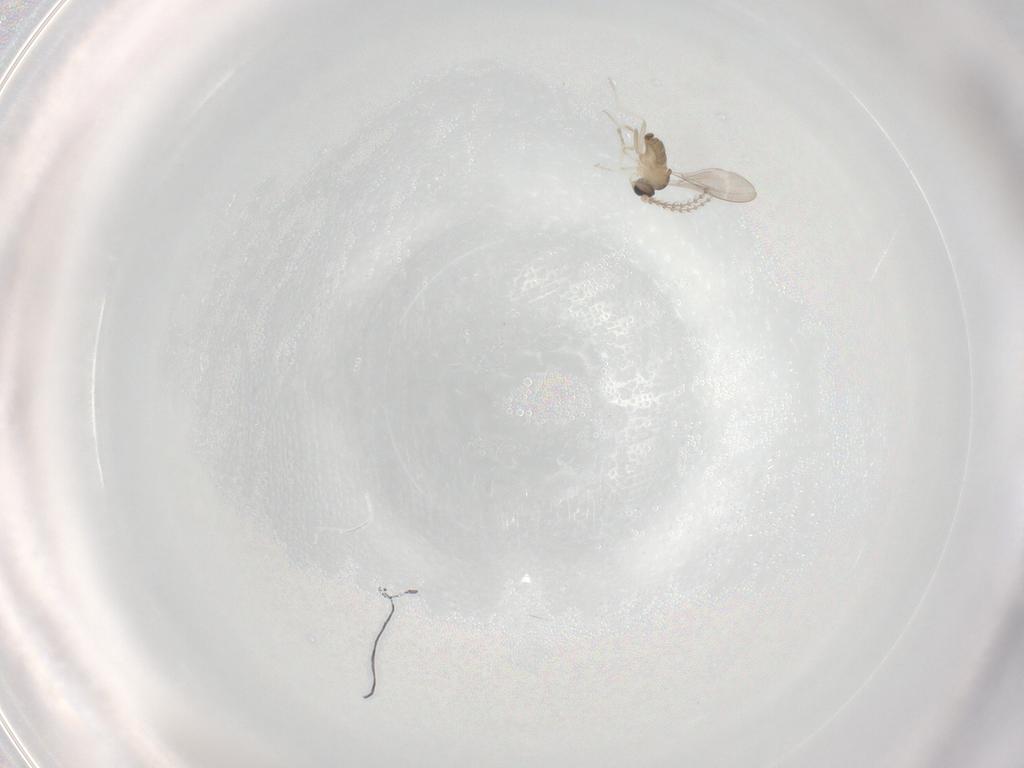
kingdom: Animalia
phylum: Arthropoda
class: Insecta
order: Diptera
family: Cecidomyiidae
